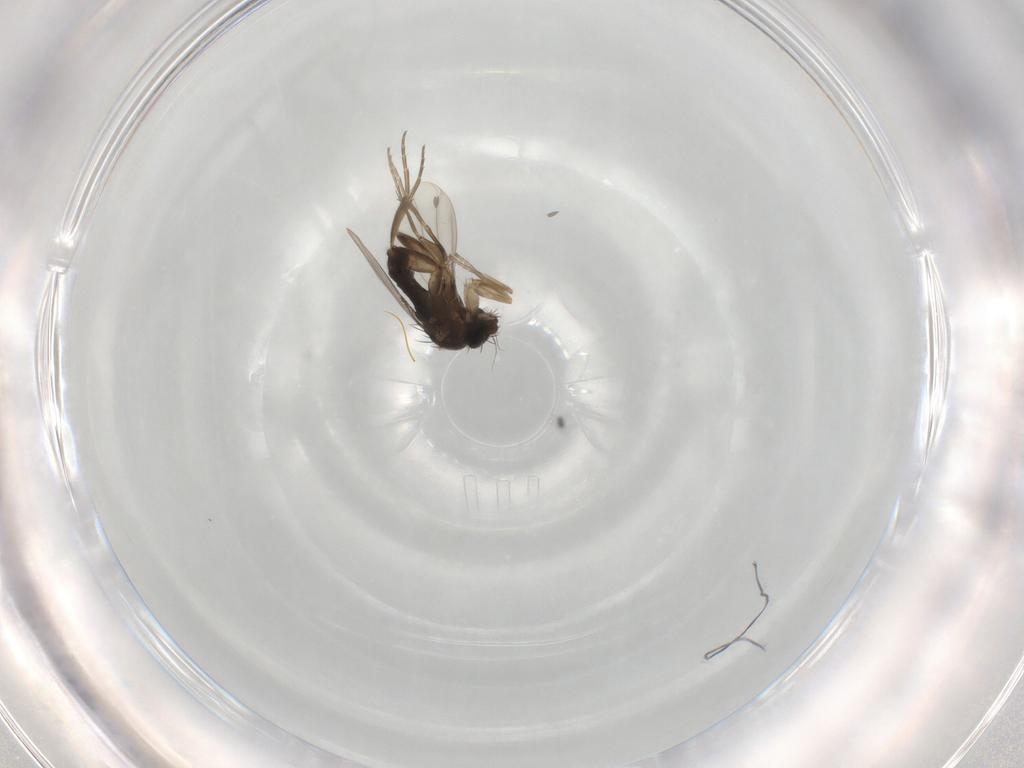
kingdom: Animalia
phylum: Arthropoda
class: Insecta
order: Diptera
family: Phoridae
